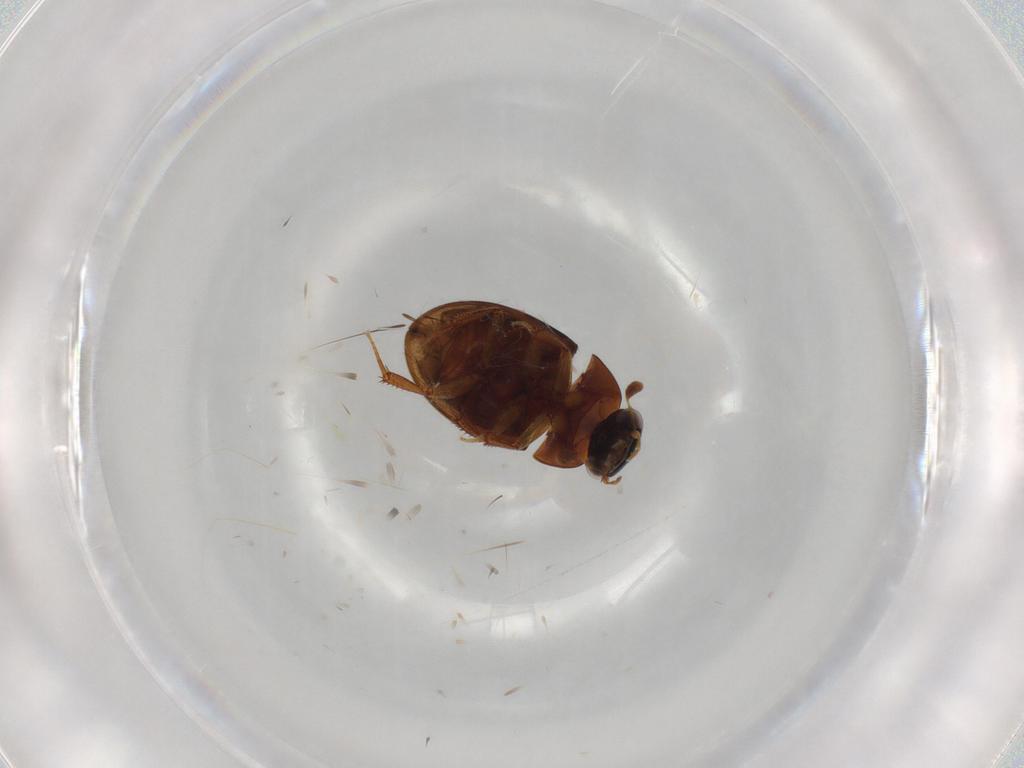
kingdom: Animalia
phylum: Arthropoda
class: Insecta
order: Coleoptera
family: Hydrophilidae
